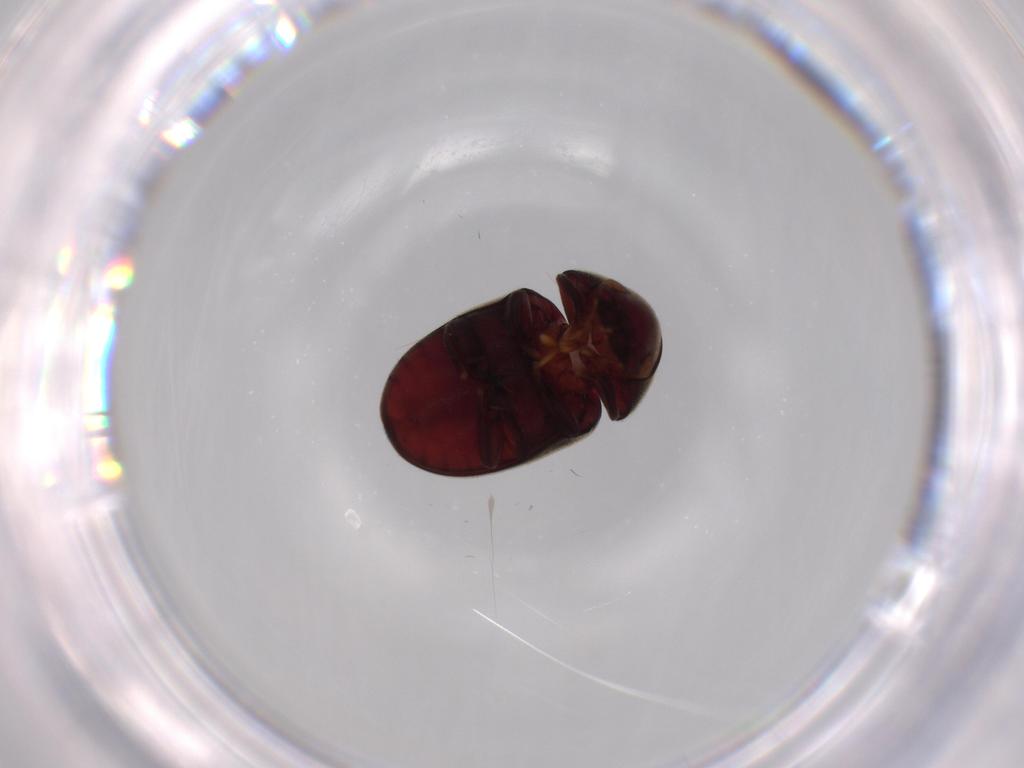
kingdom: Animalia
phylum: Arthropoda
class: Insecta
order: Coleoptera
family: Ptinidae
